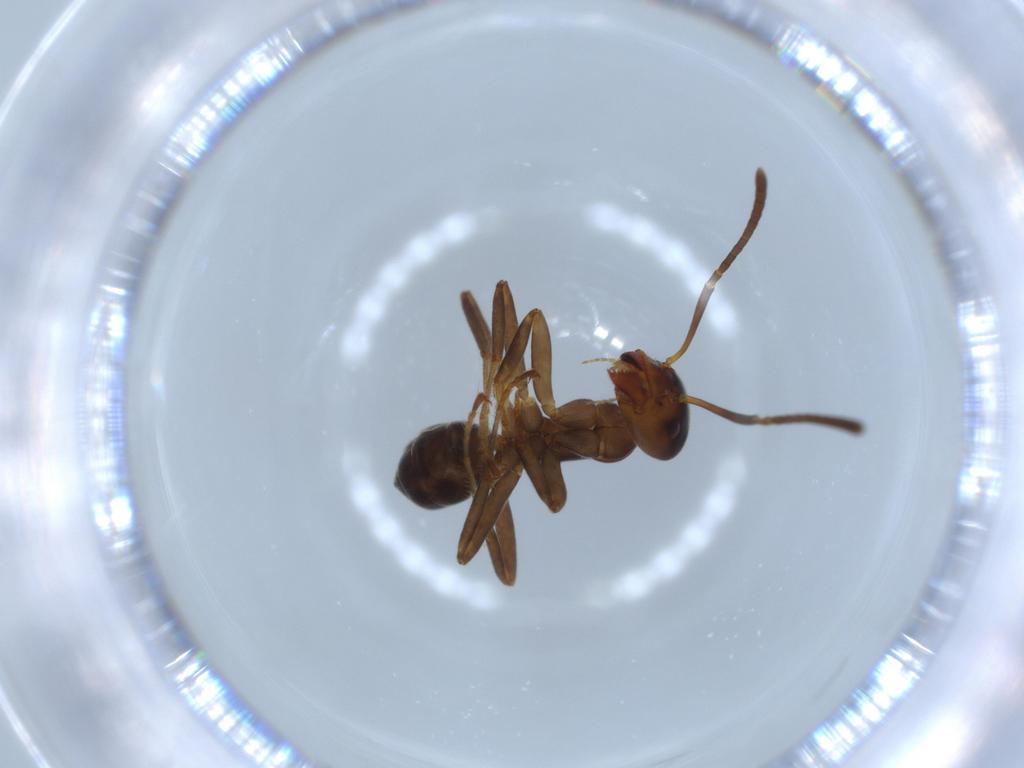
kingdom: Animalia
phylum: Arthropoda
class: Insecta
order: Hymenoptera
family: Formicidae
